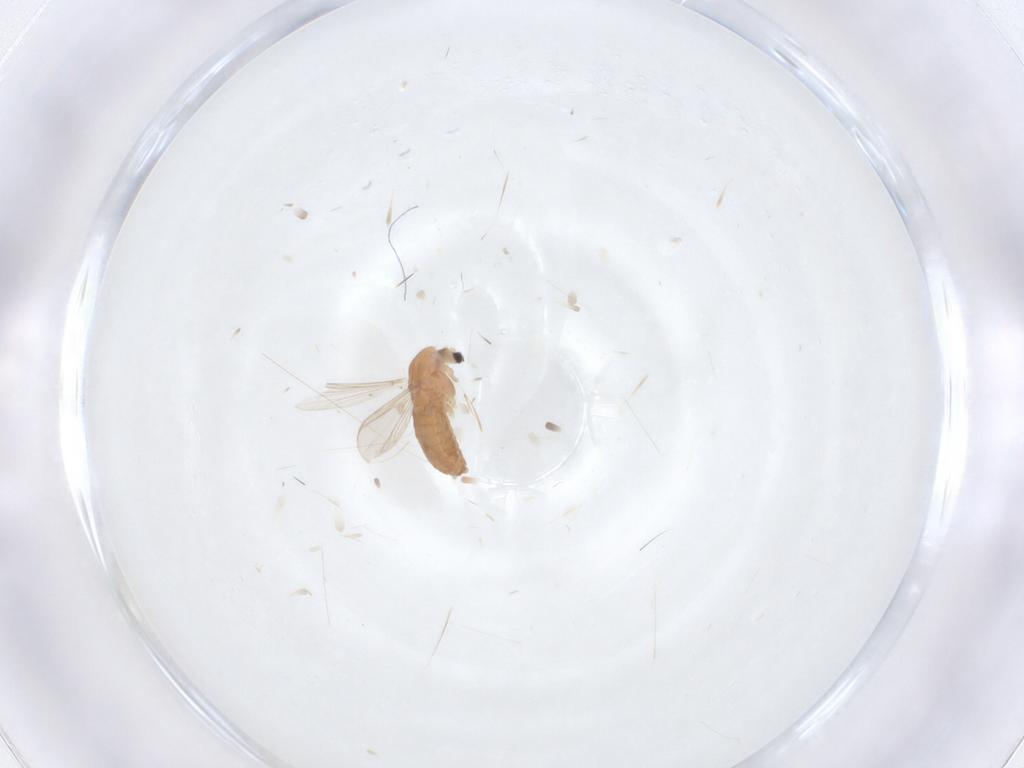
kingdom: Animalia
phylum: Arthropoda
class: Insecta
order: Diptera
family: Chironomidae
